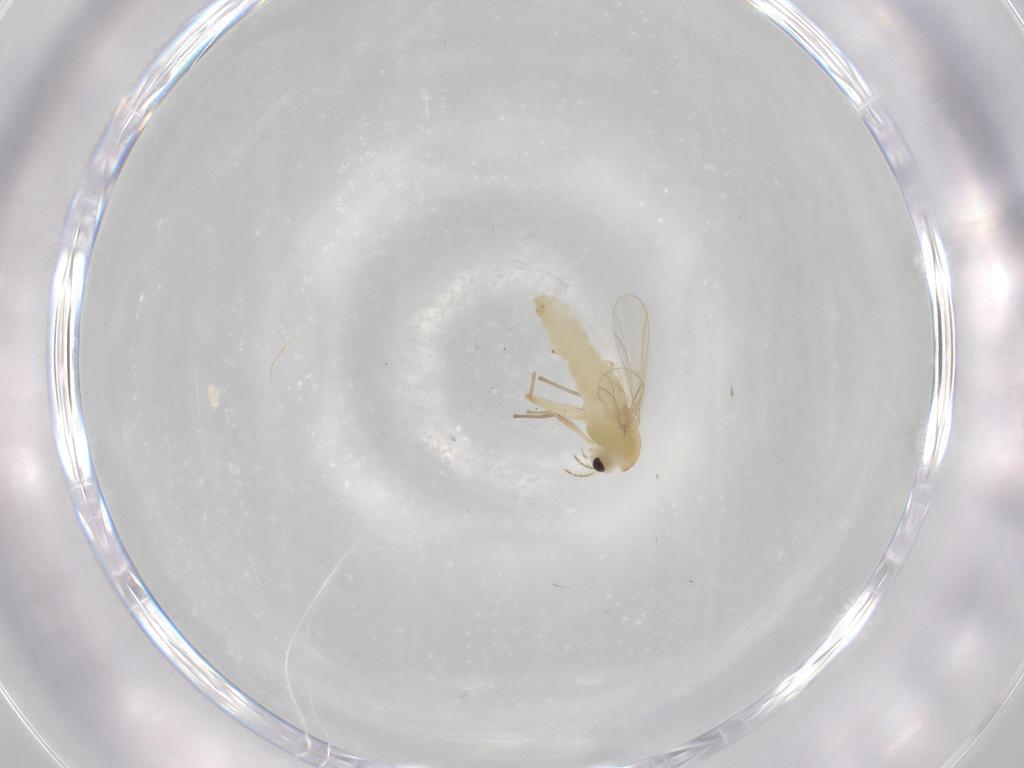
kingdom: Animalia
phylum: Arthropoda
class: Insecta
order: Diptera
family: Chironomidae
